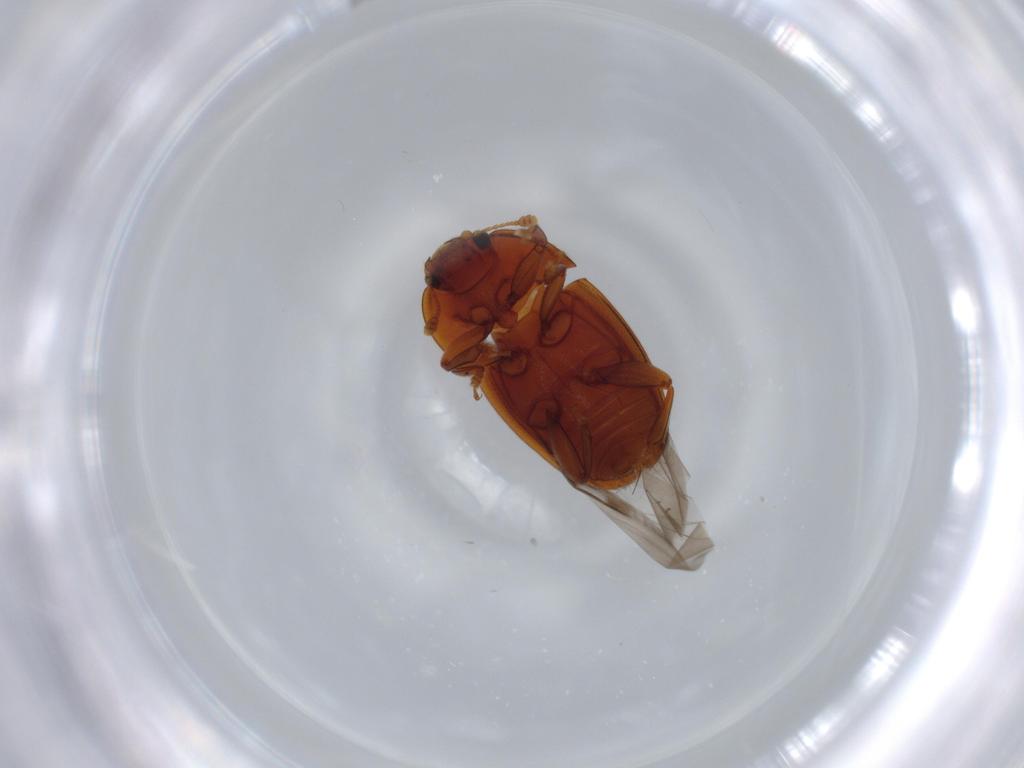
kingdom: Animalia
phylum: Arthropoda
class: Insecta
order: Coleoptera
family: Nitidulidae
